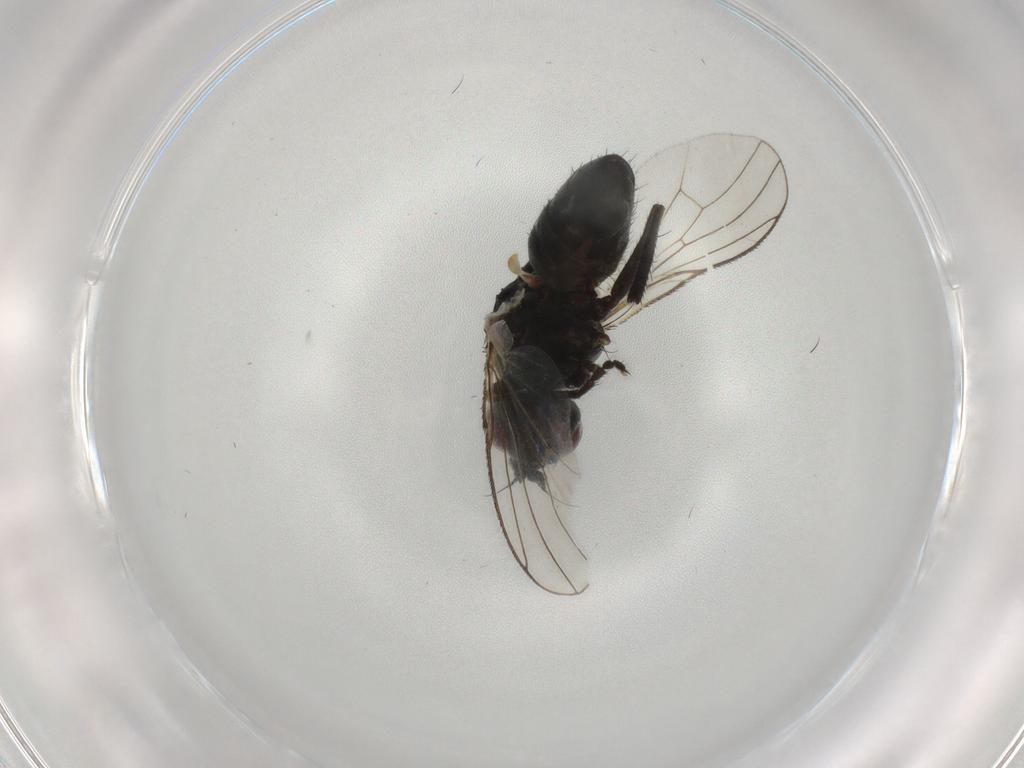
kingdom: Animalia
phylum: Arthropoda
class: Insecta
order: Diptera
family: Muscidae
